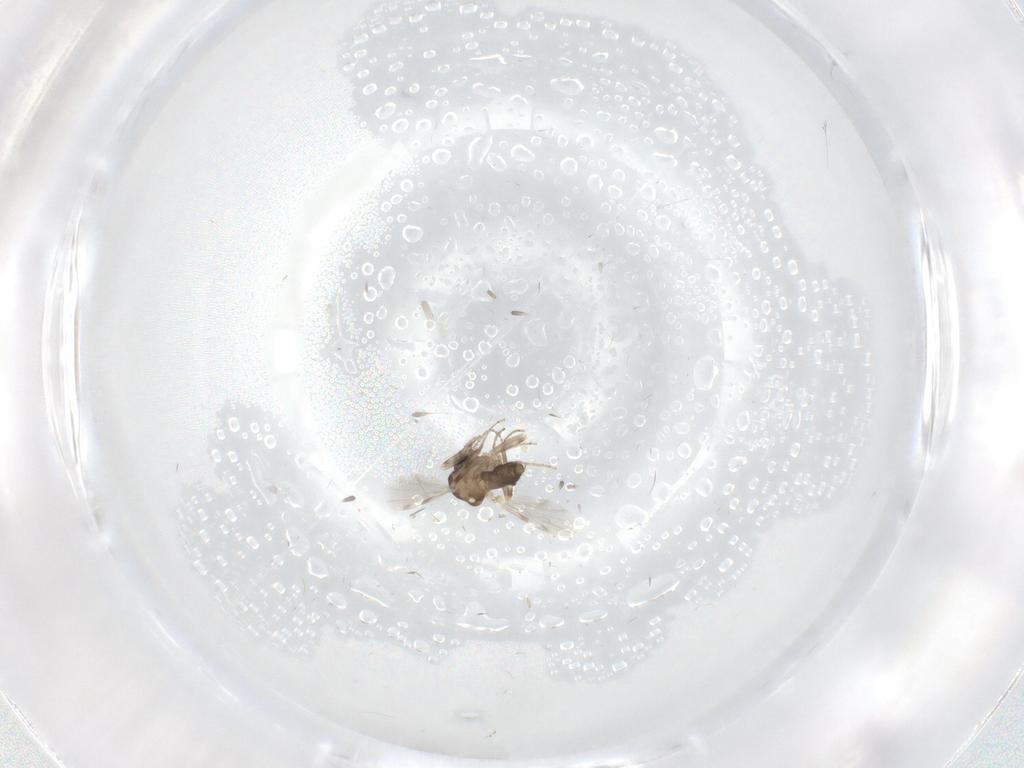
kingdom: Animalia
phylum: Arthropoda
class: Insecta
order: Diptera
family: Ceratopogonidae
